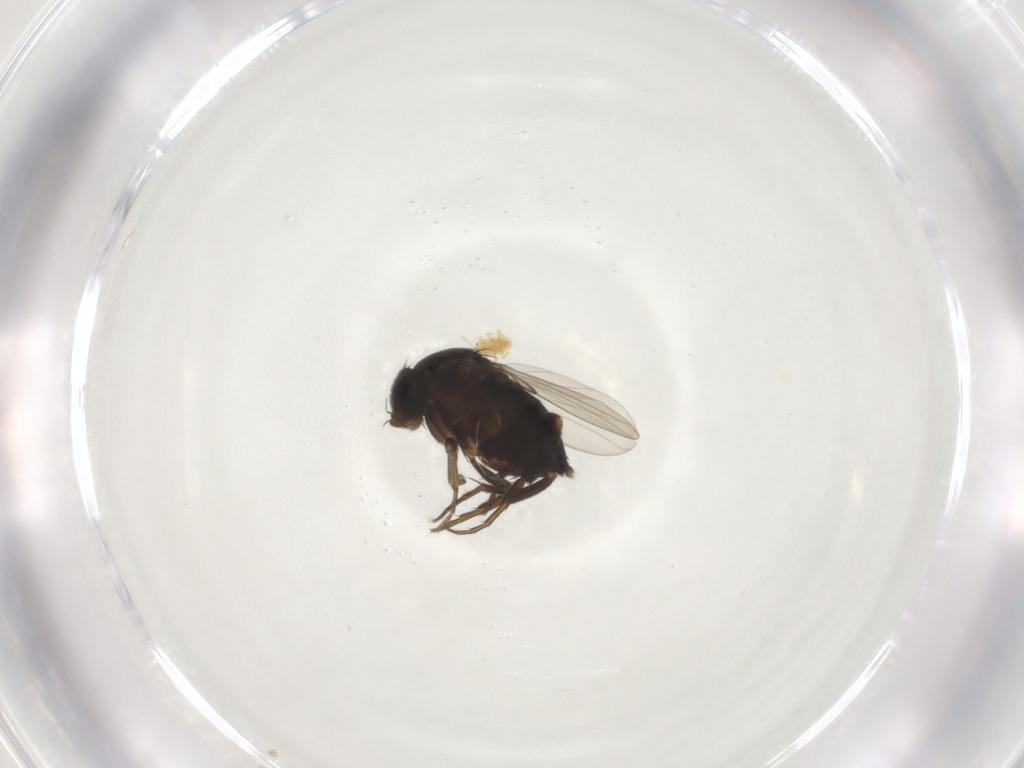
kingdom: Animalia
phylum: Arthropoda
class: Insecta
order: Diptera
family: Phoridae
